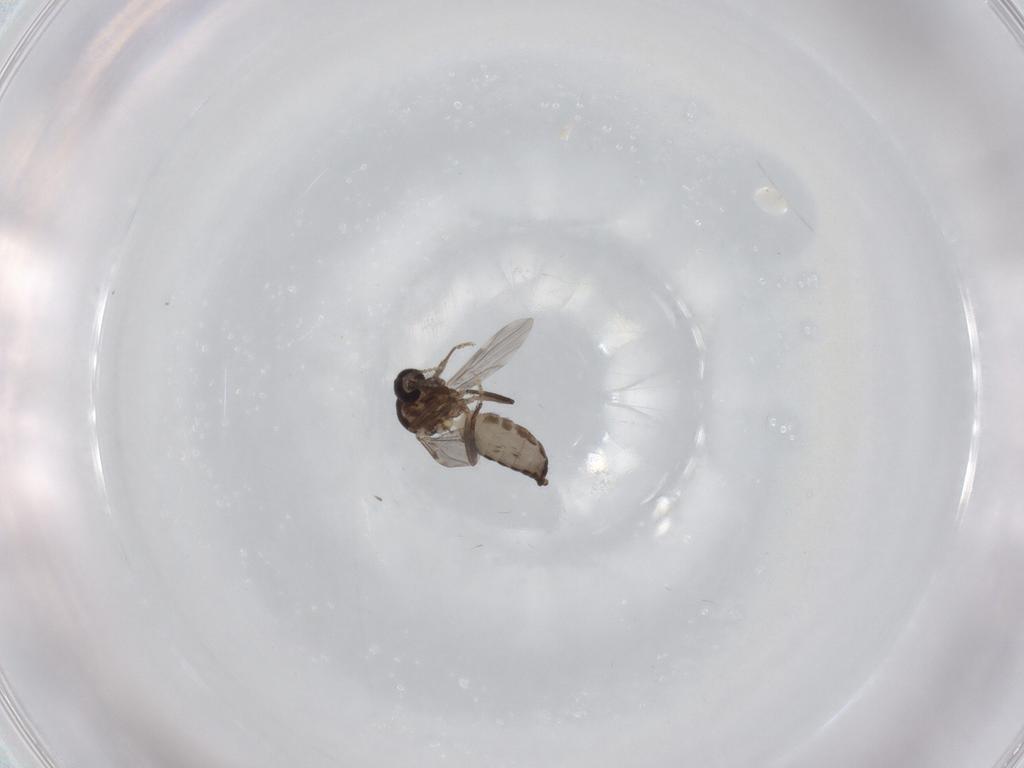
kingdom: Animalia
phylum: Arthropoda
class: Insecta
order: Diptera
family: Ceratopogonidae
